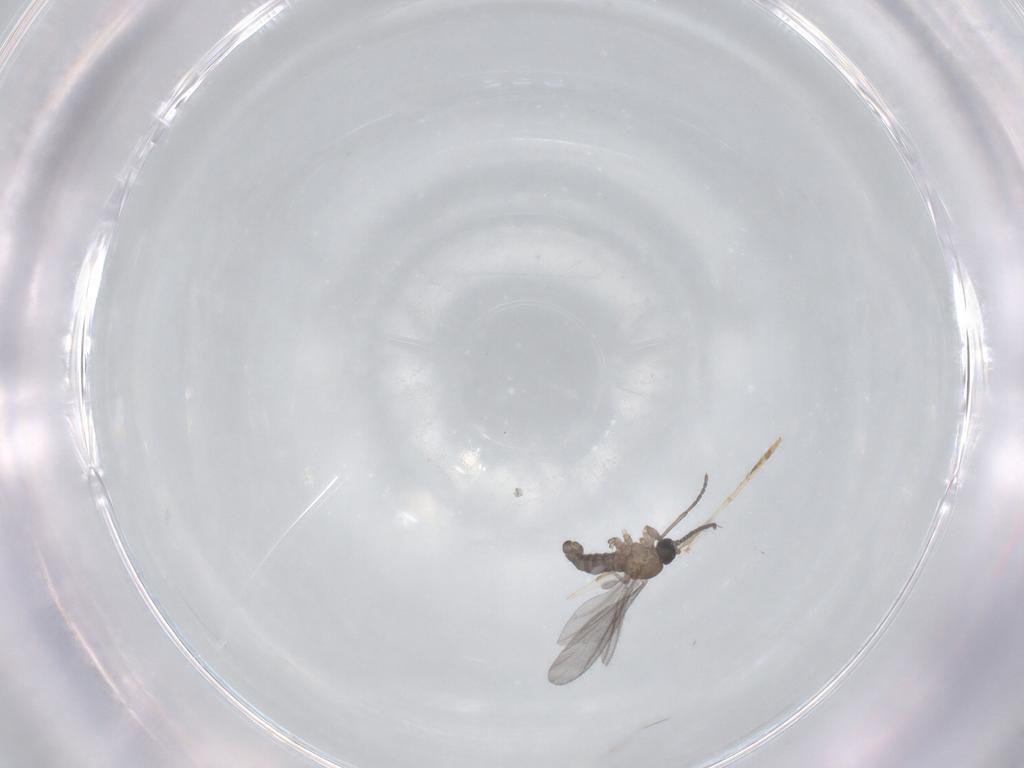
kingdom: Animalia
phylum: Arthropoda
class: Insecta
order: Diptera
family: Sciaridae
